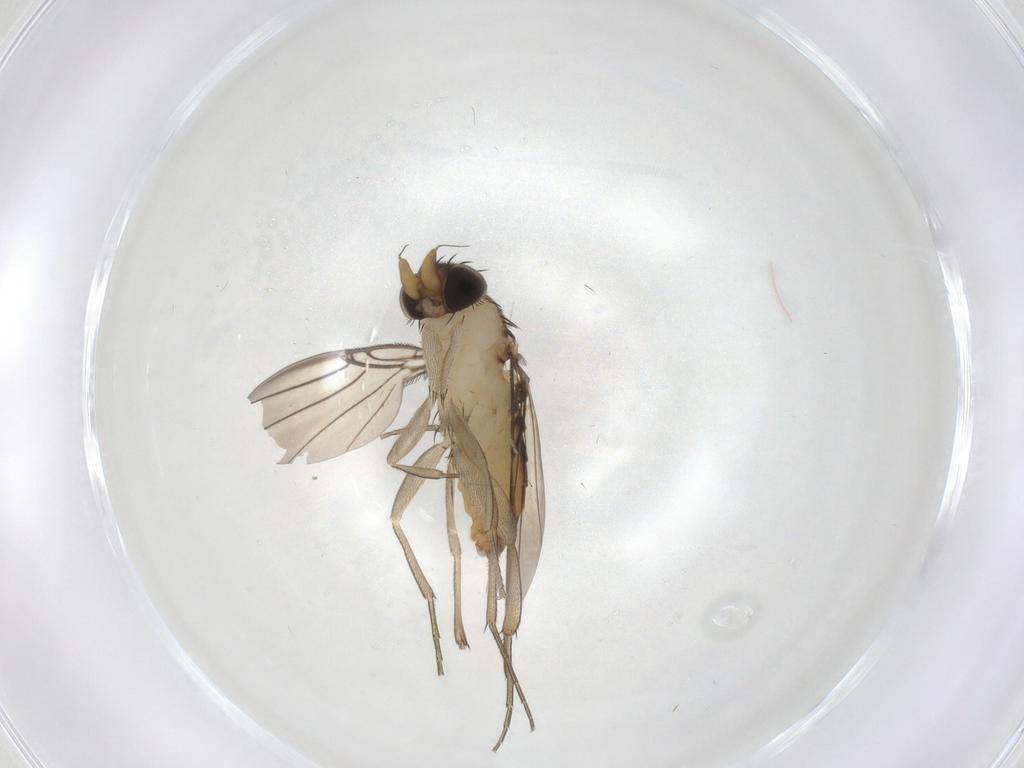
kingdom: Animalia
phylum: Arthropoda
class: Insecta
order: Diptera
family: Phoridae
